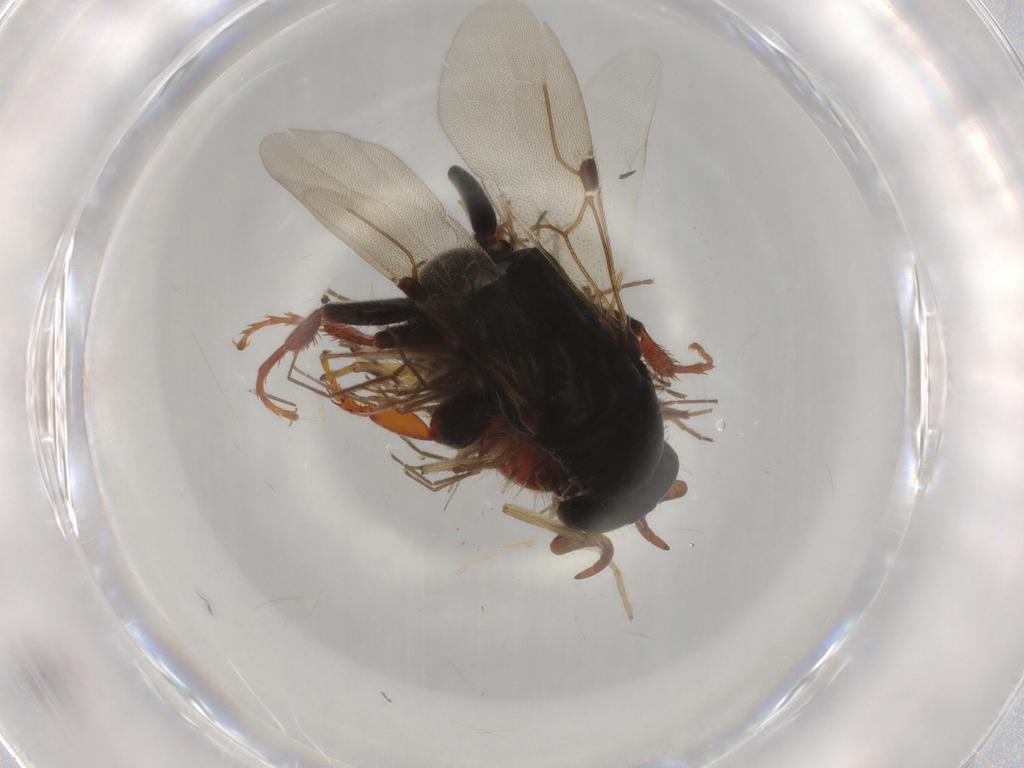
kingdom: Animalia
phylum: Arthropoda
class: Insecta
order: Hymenoptera
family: Bethylidae
